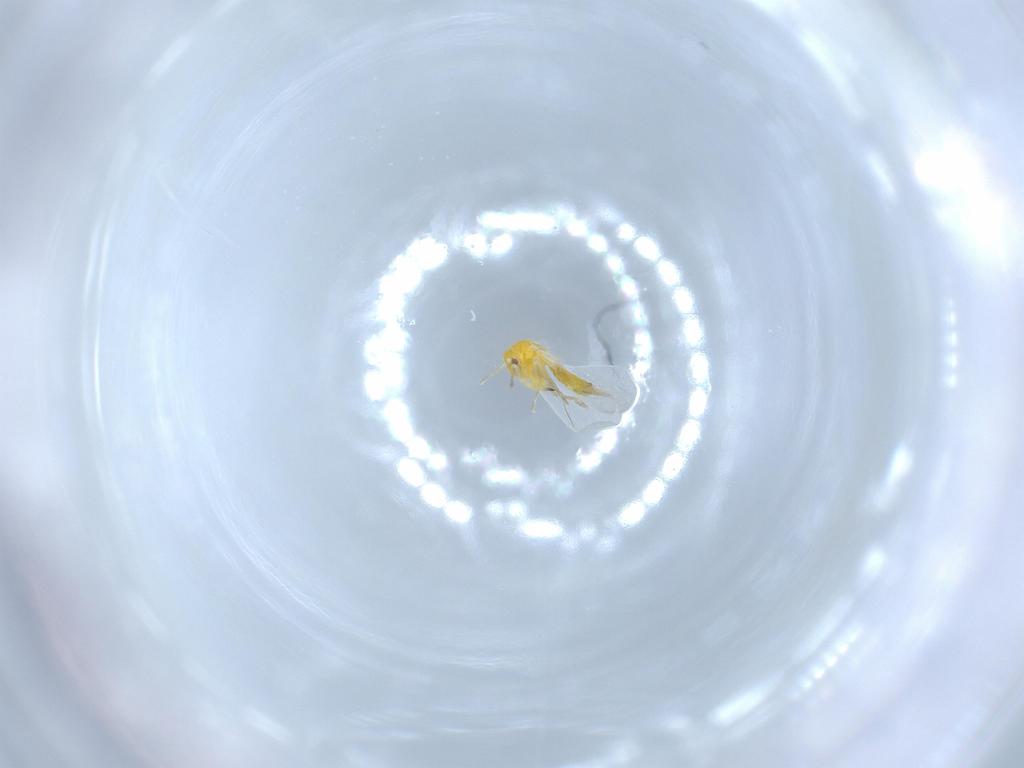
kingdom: Animalia
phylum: Arthropoda
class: Insecta
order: Hemiptera
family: Aleyrodidae
